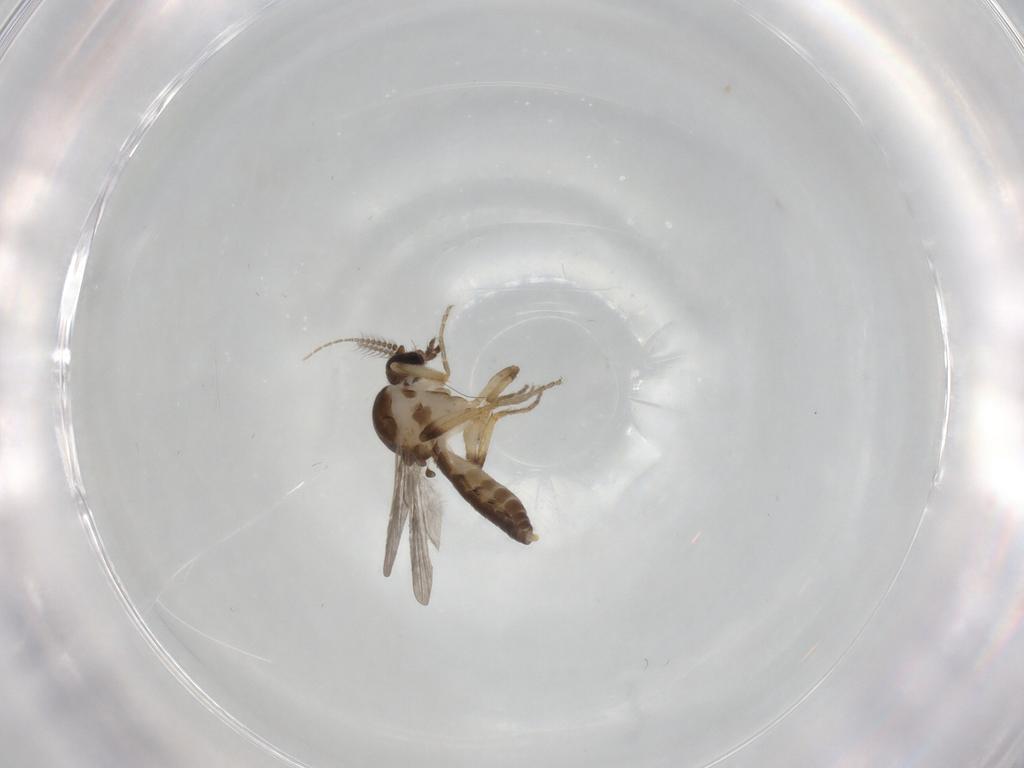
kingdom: Animalia
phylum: Arthropoda
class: Insecta
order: Diptera
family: Ceratopogonidae
